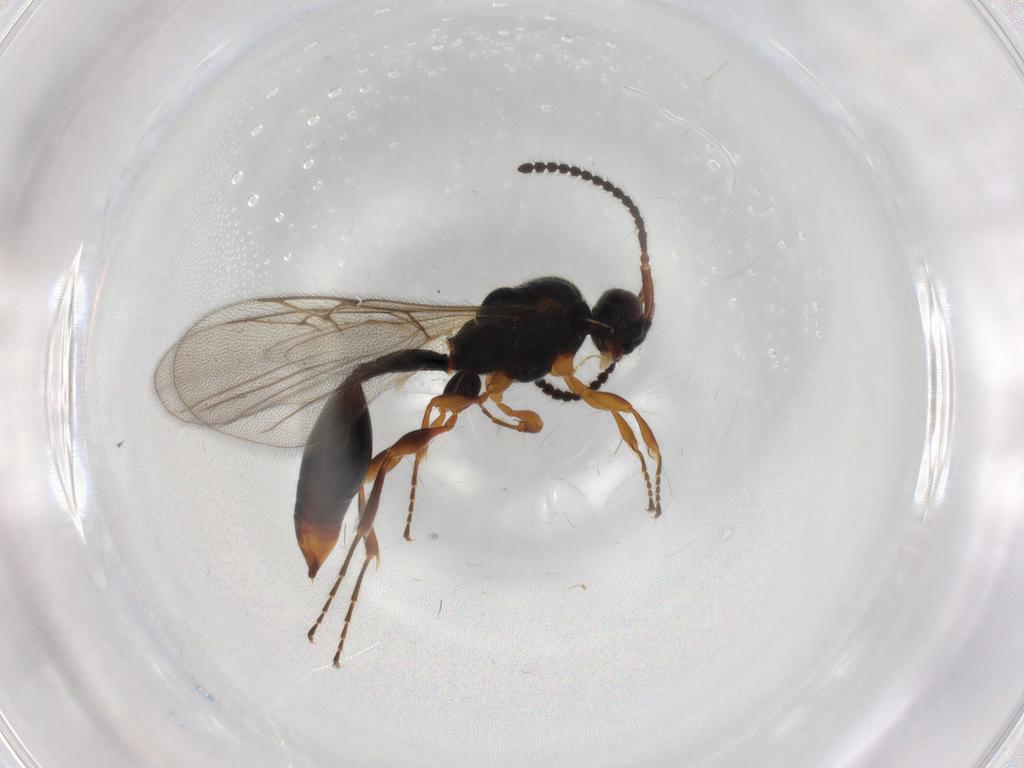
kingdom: Animalia
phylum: Arthropoda
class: Insecta
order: Hymenoptera
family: Diapriidae
